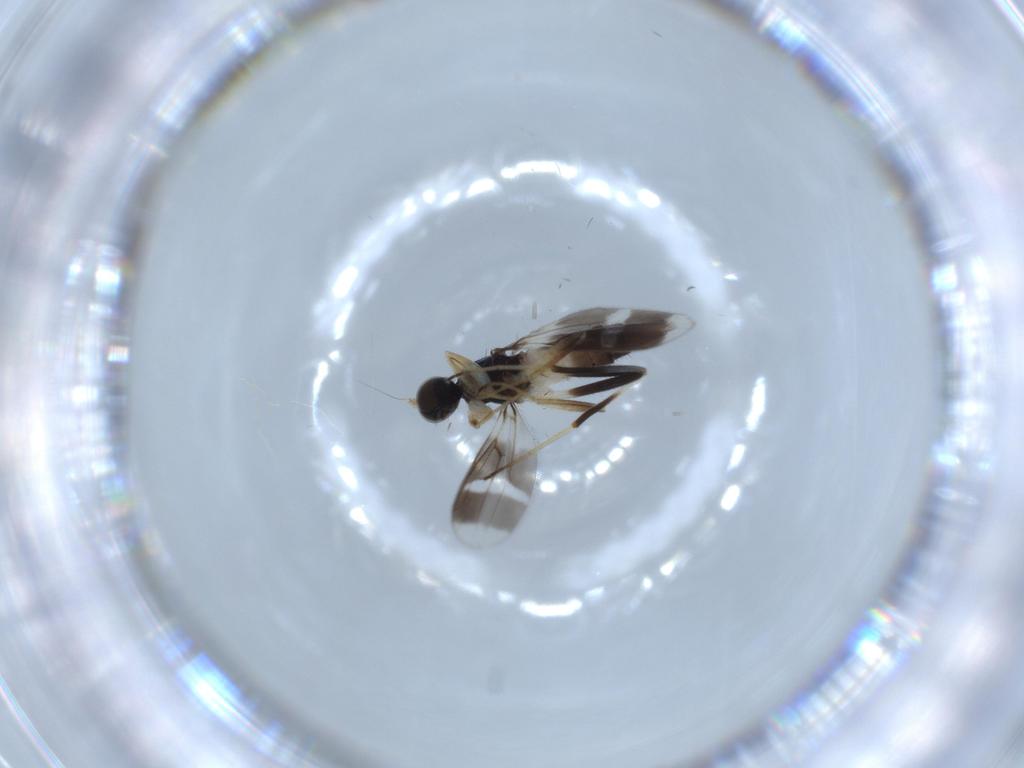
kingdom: Animalia
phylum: Arthropoda
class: Insecta
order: Diptera
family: Hybotidae
